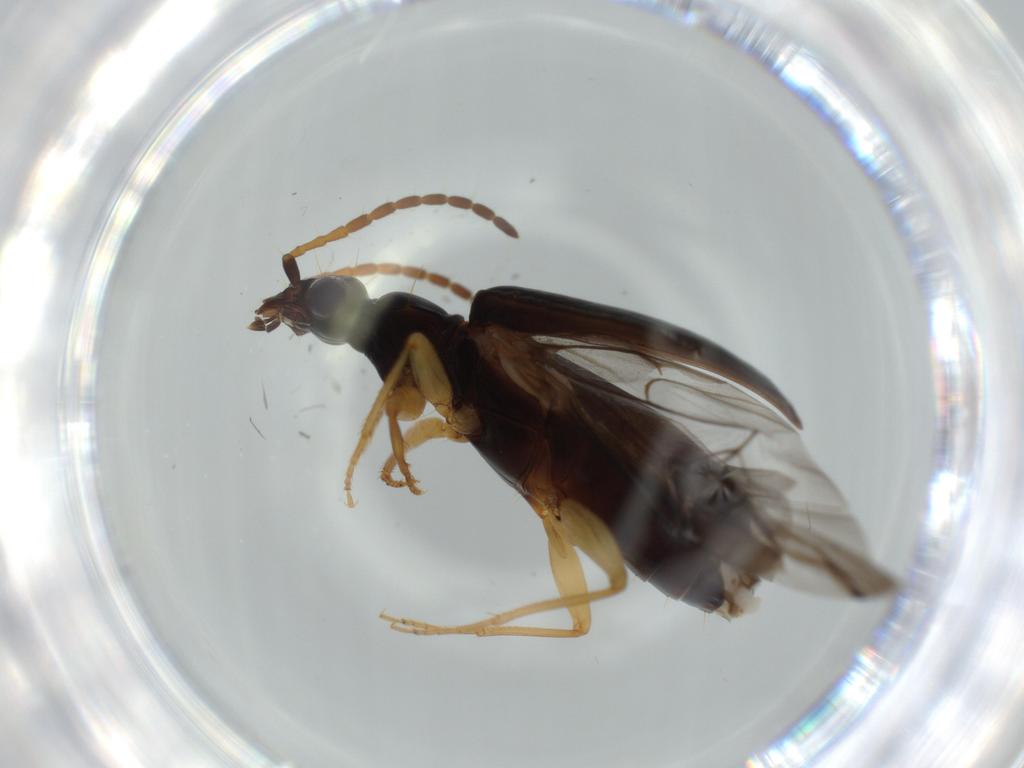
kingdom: Animalia
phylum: Arthropoda
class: Insecta
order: Coleoptera
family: Carabidae
